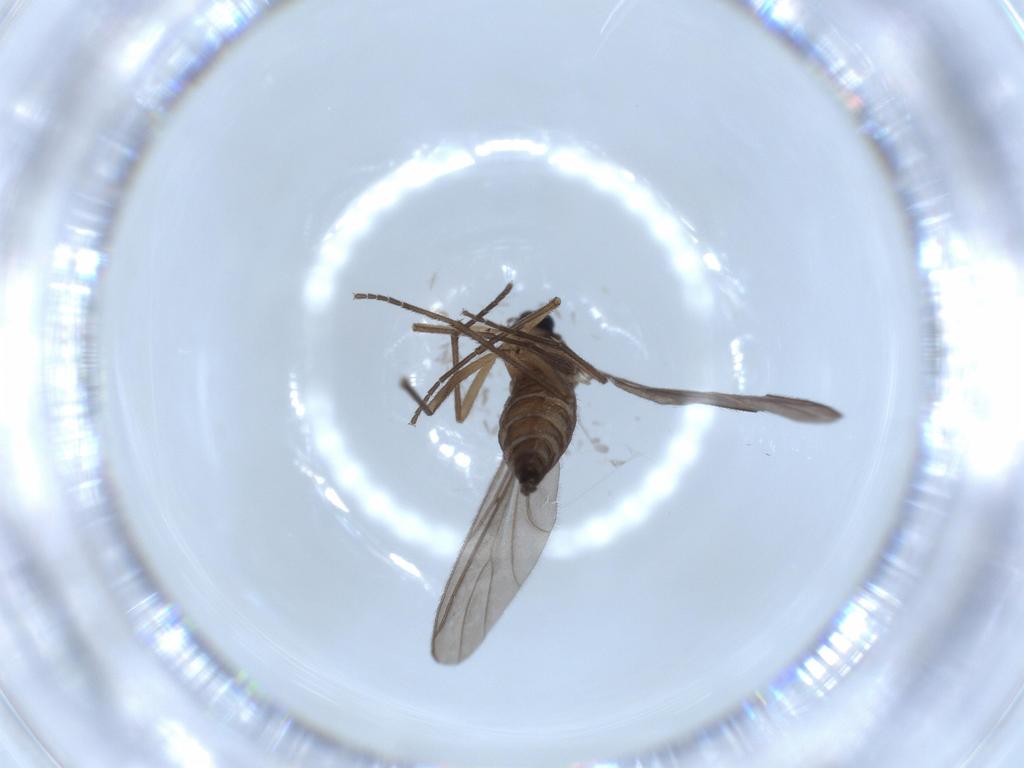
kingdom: Animalia
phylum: Arthropoda
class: Insecta
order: Diptera
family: Sciaridae
